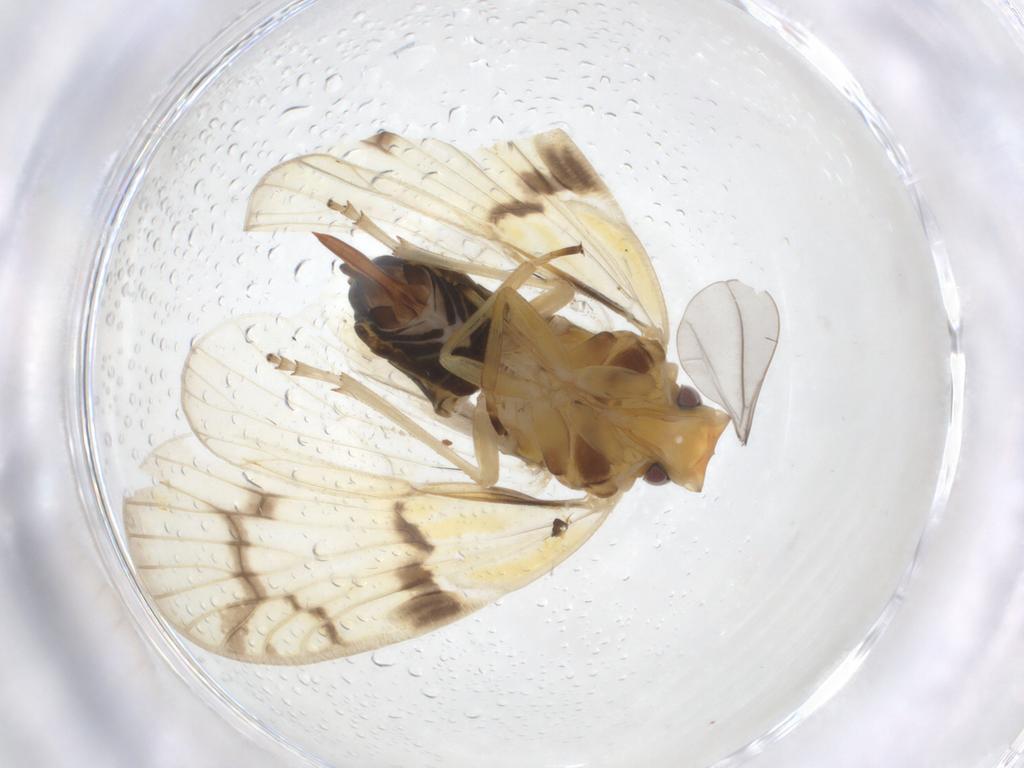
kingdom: Animalia
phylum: Arthropoda
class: Insecta
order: Hemiptera
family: Cixiidae
